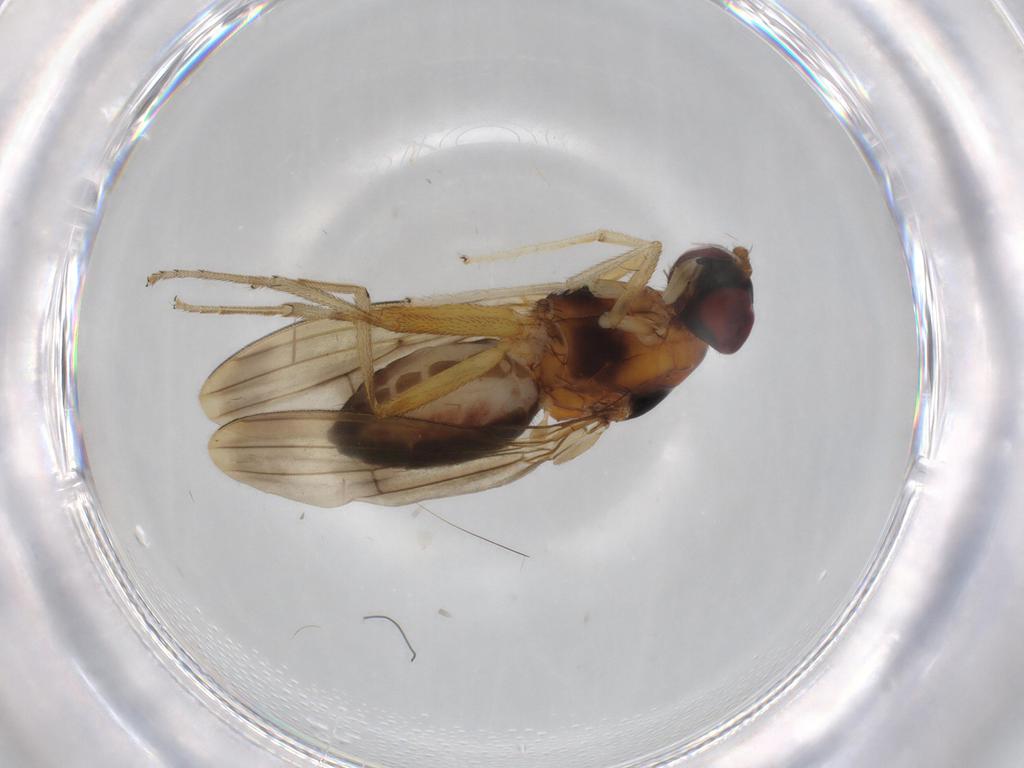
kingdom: Animalia
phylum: Arthropoda
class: Insecta
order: Diptera
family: Lauxaniidae
